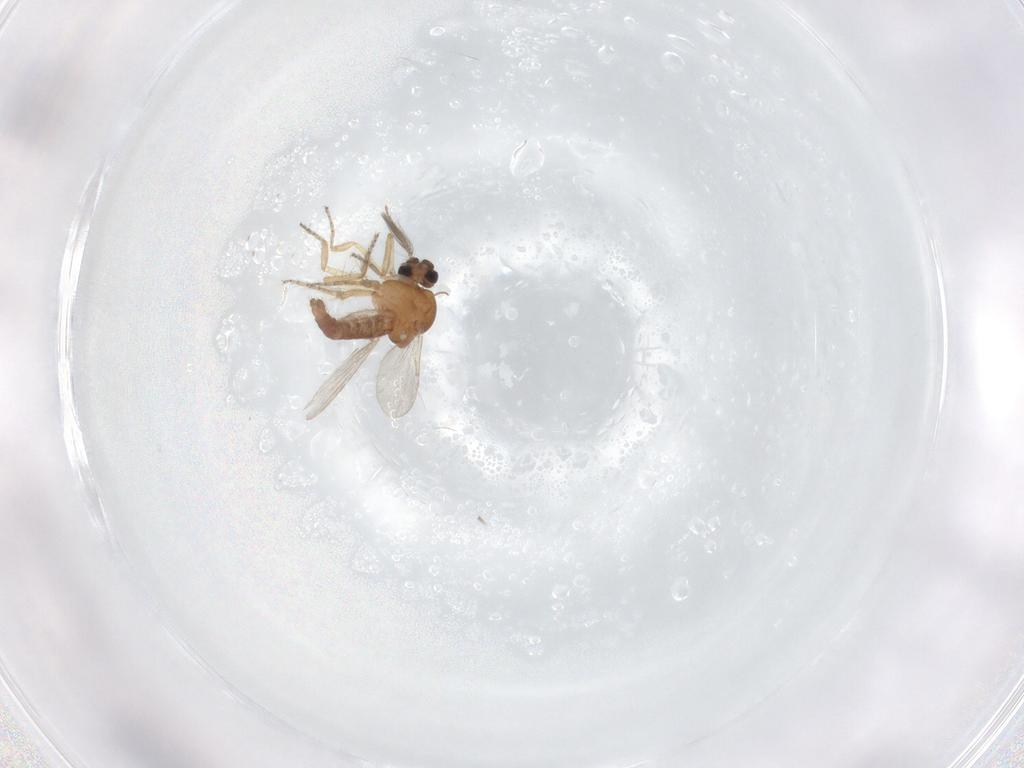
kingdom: Animalia
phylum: Arthropoda
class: Insecta
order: Diptera
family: Ceratopogonidae
